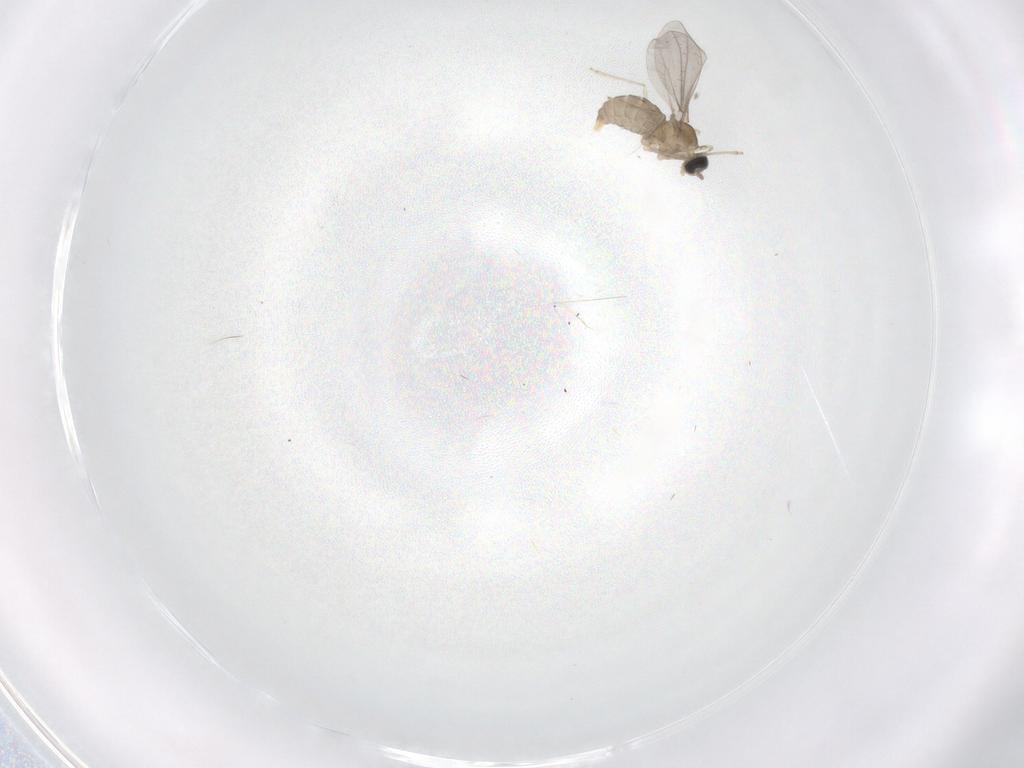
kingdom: Animalia
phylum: Arthropoda
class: Insecta
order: Diptera
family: Cecidomyiidae
